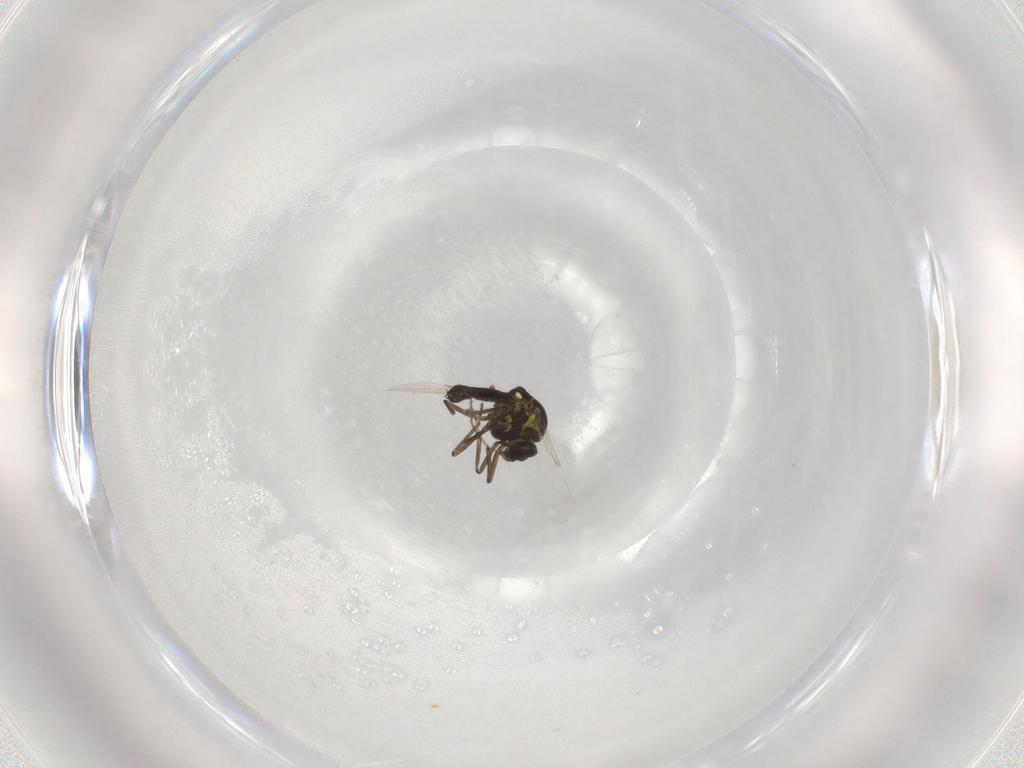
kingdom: Animalia
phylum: Arthropoda
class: Insecta
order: Diptera
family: Ceratopogonidae
